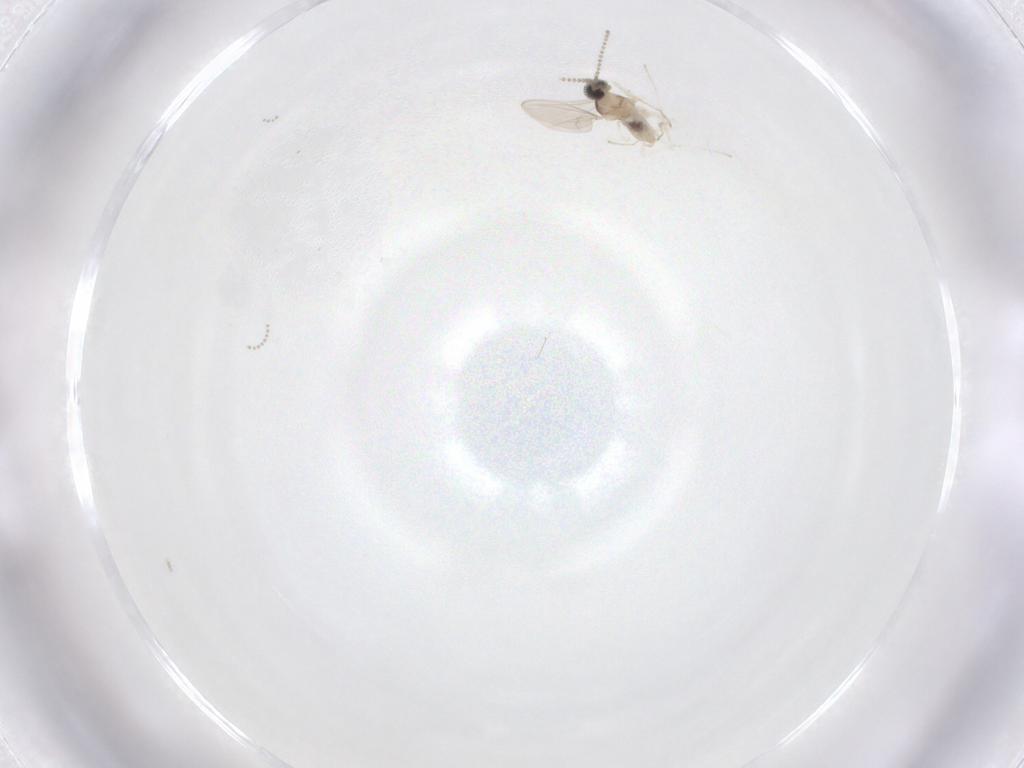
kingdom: Animalia
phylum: Arthropoda
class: Insecta
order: Diptera
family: Cecidomyiidae
